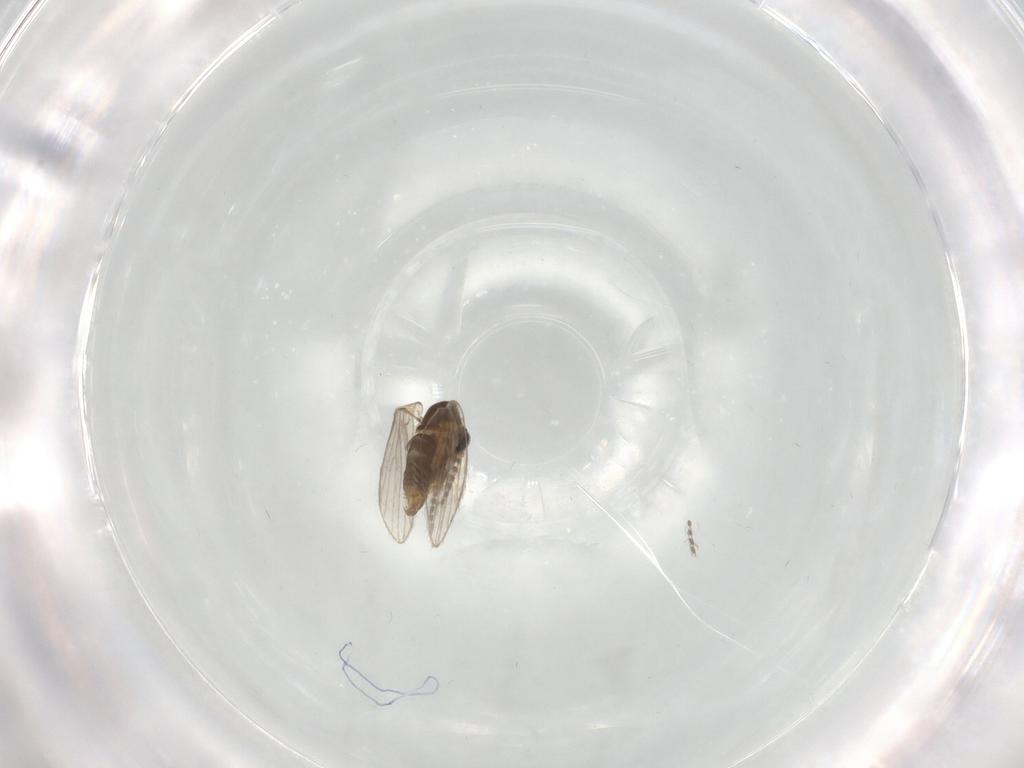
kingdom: Animalia
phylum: Arthropoda
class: Insecta
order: Diptera
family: Psychodidae
